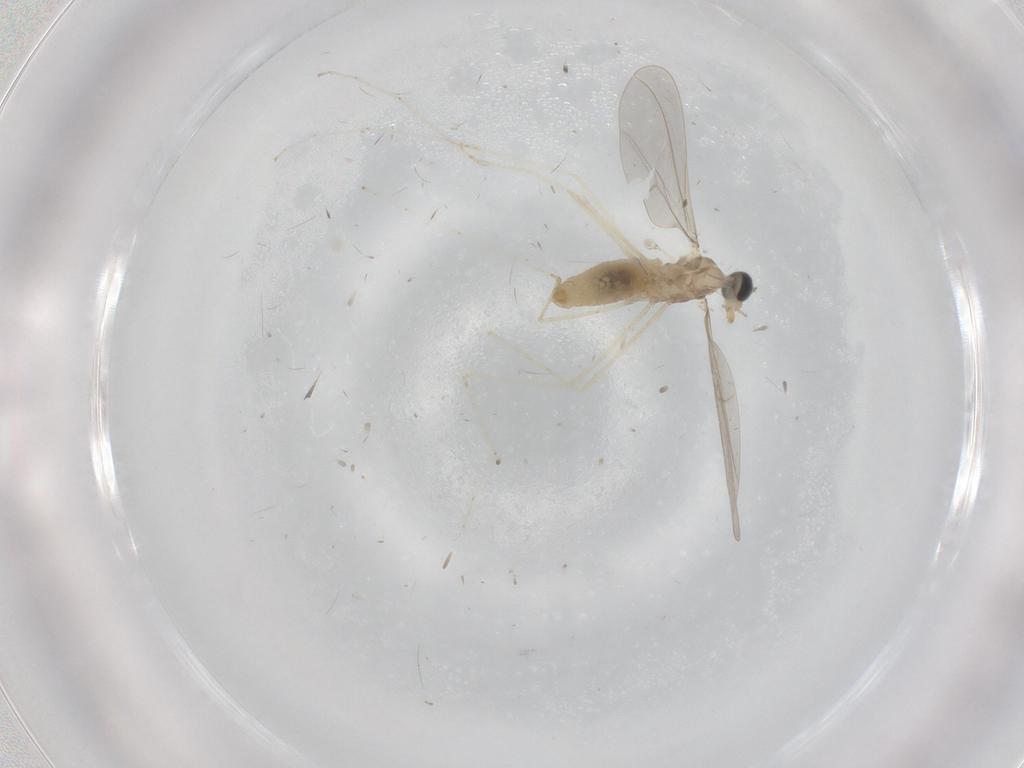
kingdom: Animalia
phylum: Arthropoda
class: Insecta
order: Diptera
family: Cecidomyiidae
